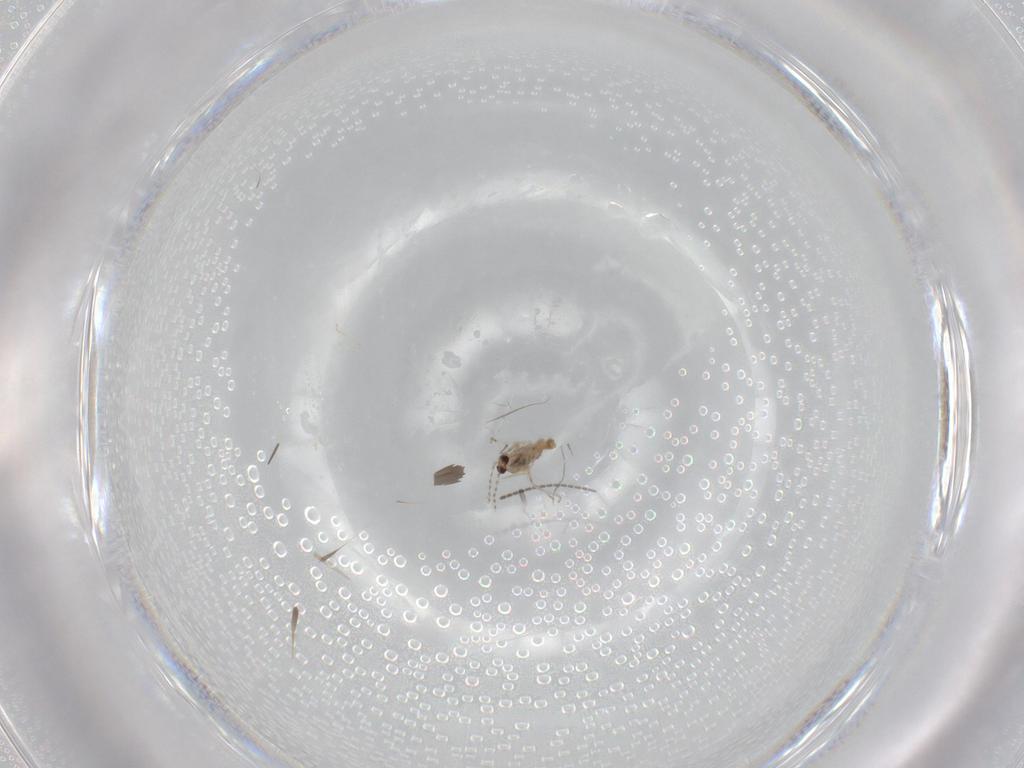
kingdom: Animalia
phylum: Arthropoda
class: Insecta
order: Diptera
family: Cecidomyiidae
